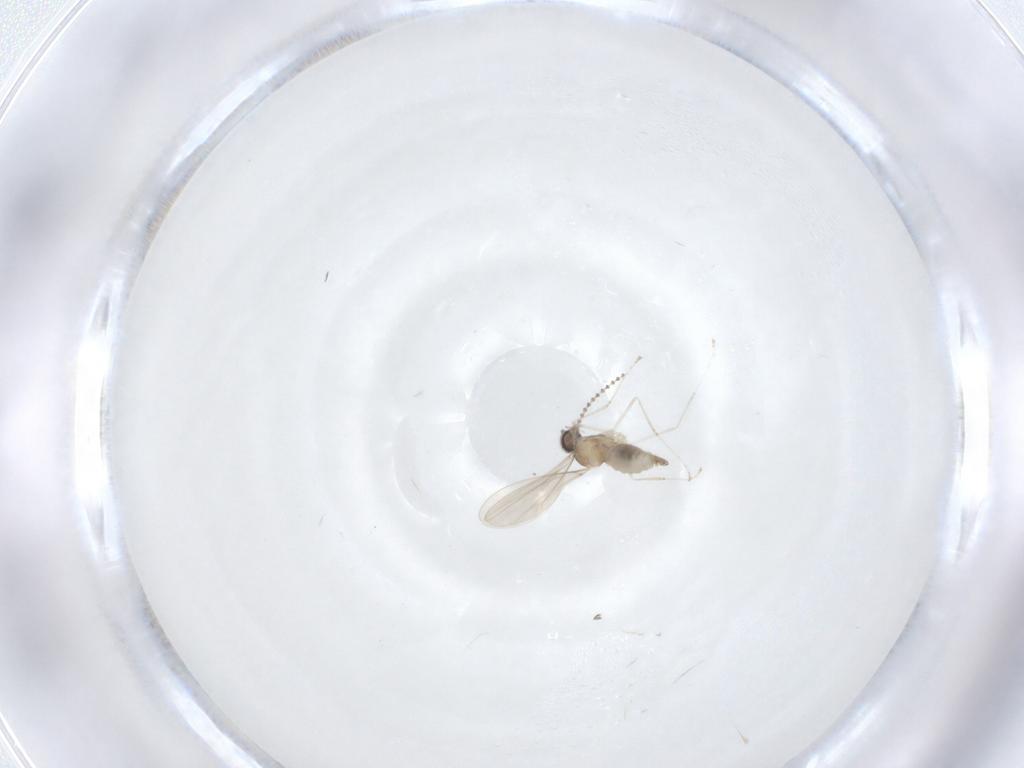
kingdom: Animalia
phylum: Arthropoda
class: Insecta
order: Diptera
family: Cecidomyiidae
